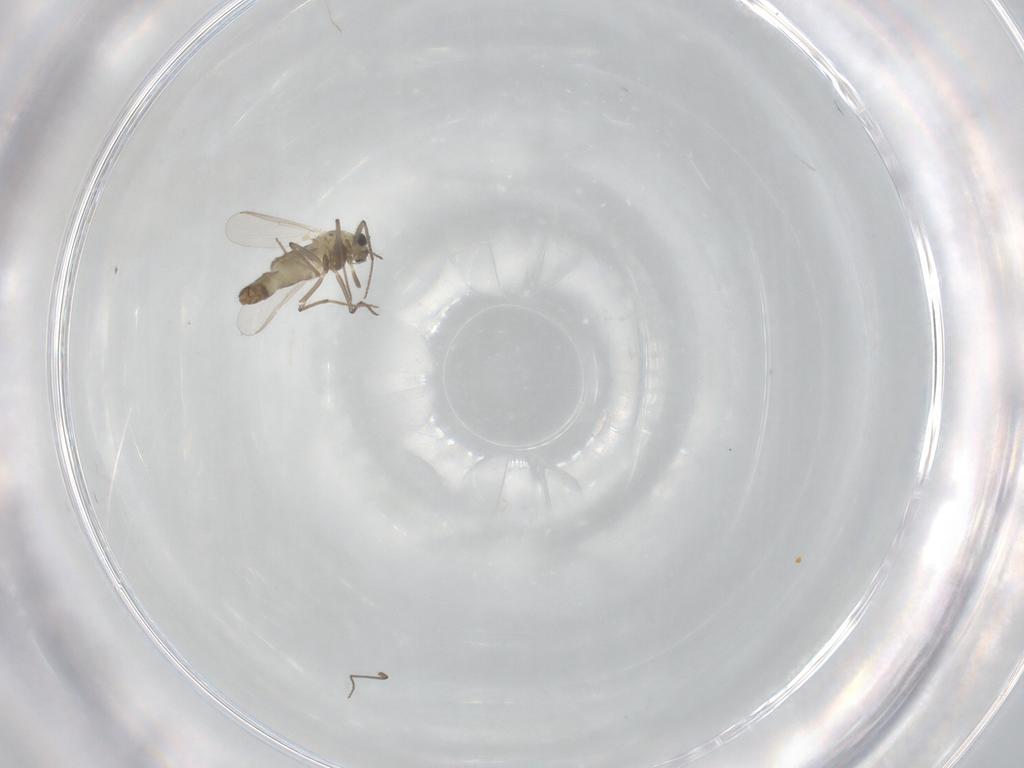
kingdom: Animalia
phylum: Arthropoda
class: Insecta
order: Diptera
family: Chironomidae
